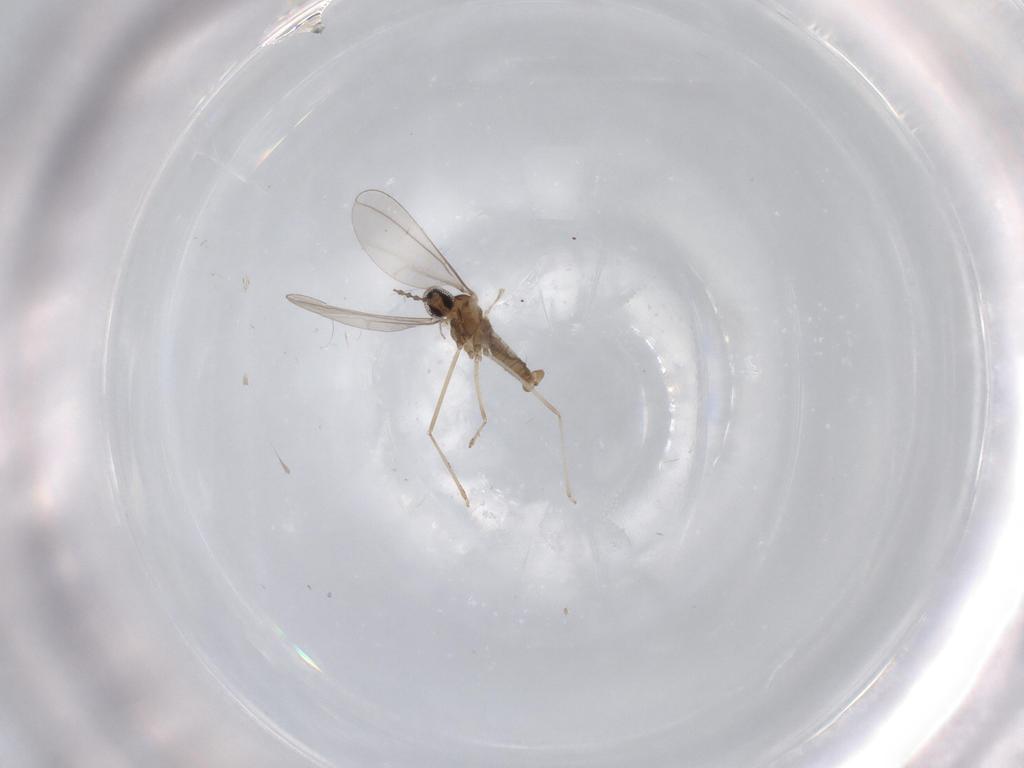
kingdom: Animalia
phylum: Arthropoda
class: Insecta
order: Diptera
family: Cecidomyiidae
